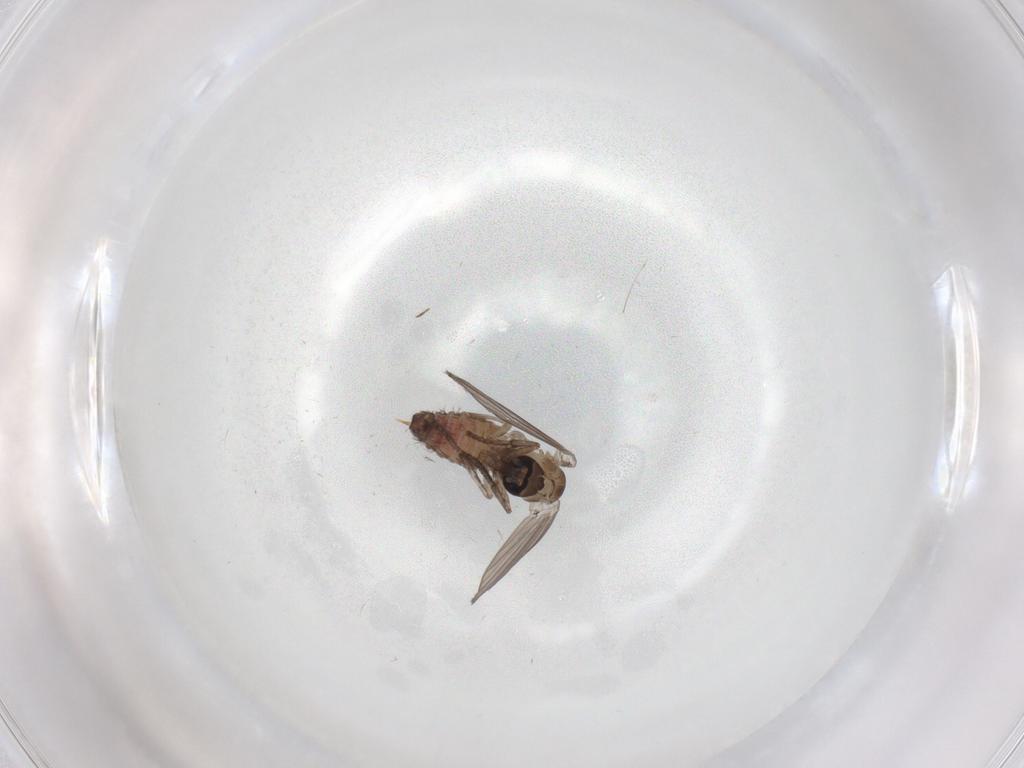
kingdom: Animalia
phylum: Arthropoda
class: Insecta
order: Diptera
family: Psychodidae
